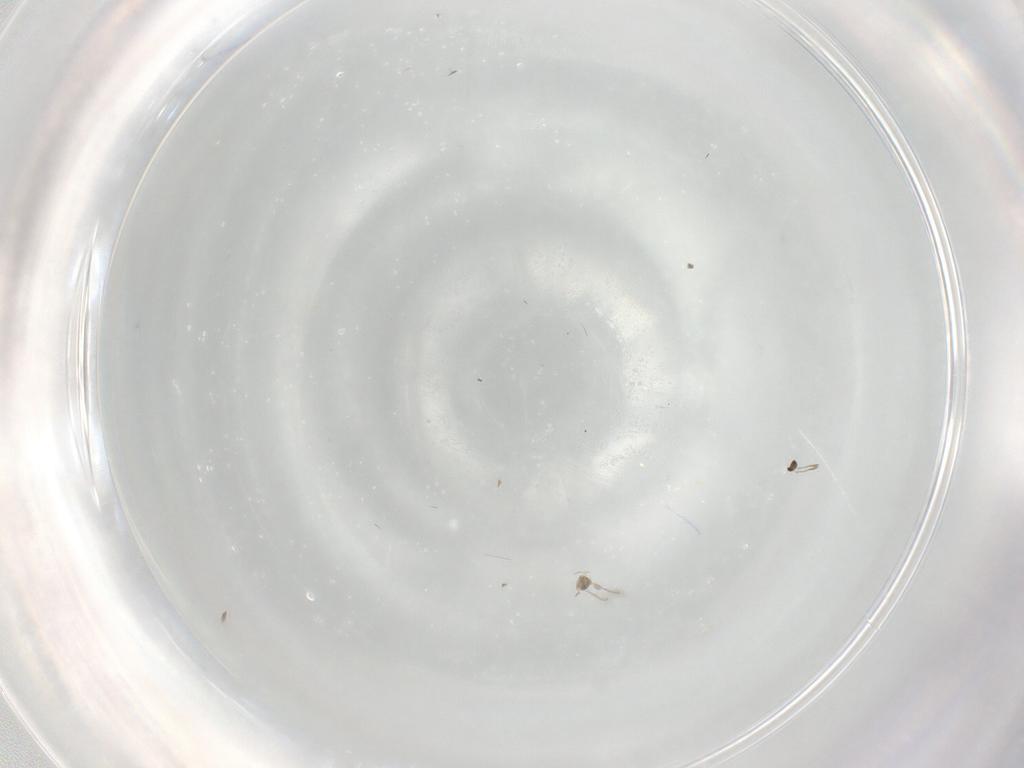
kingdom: Animalia
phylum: Arthropoda
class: Insecta
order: Hymenoptera
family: Mymaridae
